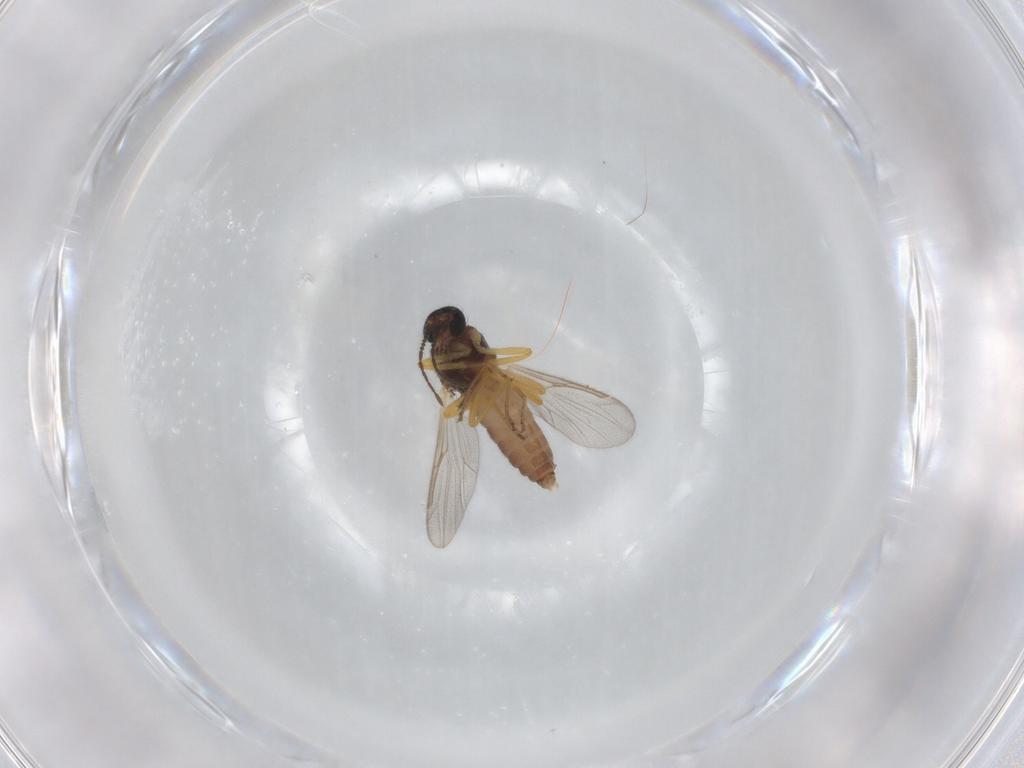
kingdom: Animalia
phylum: Arthropoda
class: Insecta
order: Diptera
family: Ceratopogonidae
